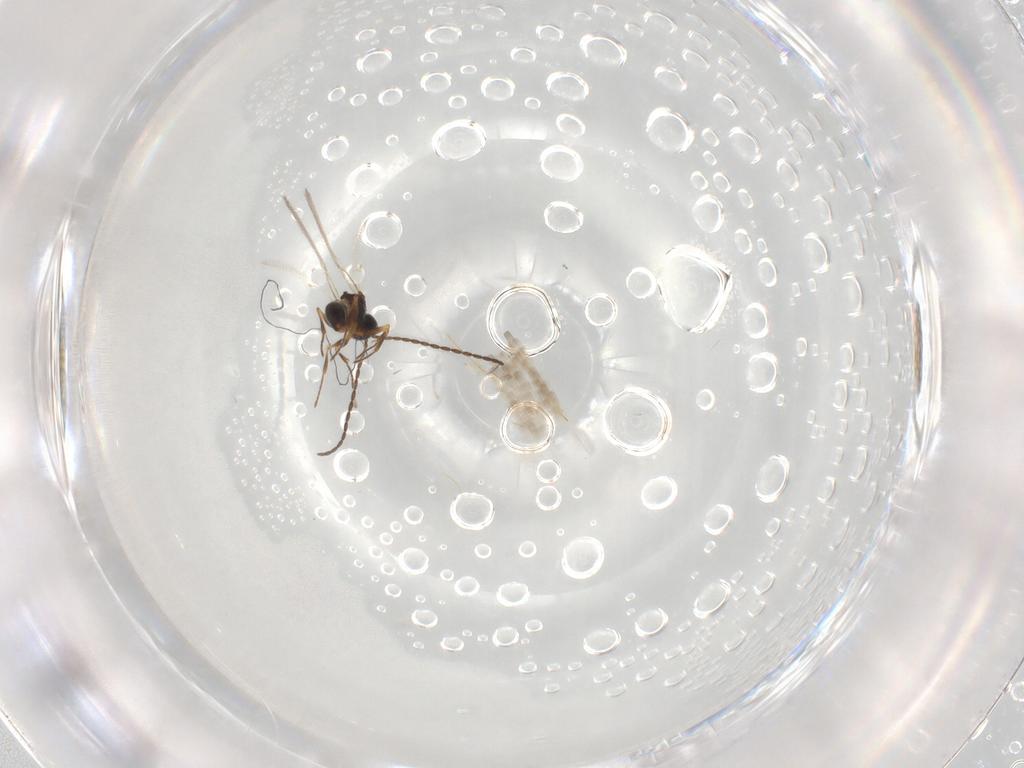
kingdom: Animalia
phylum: Arthropoda
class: Insecta
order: Hymenoptera
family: Figitidae
